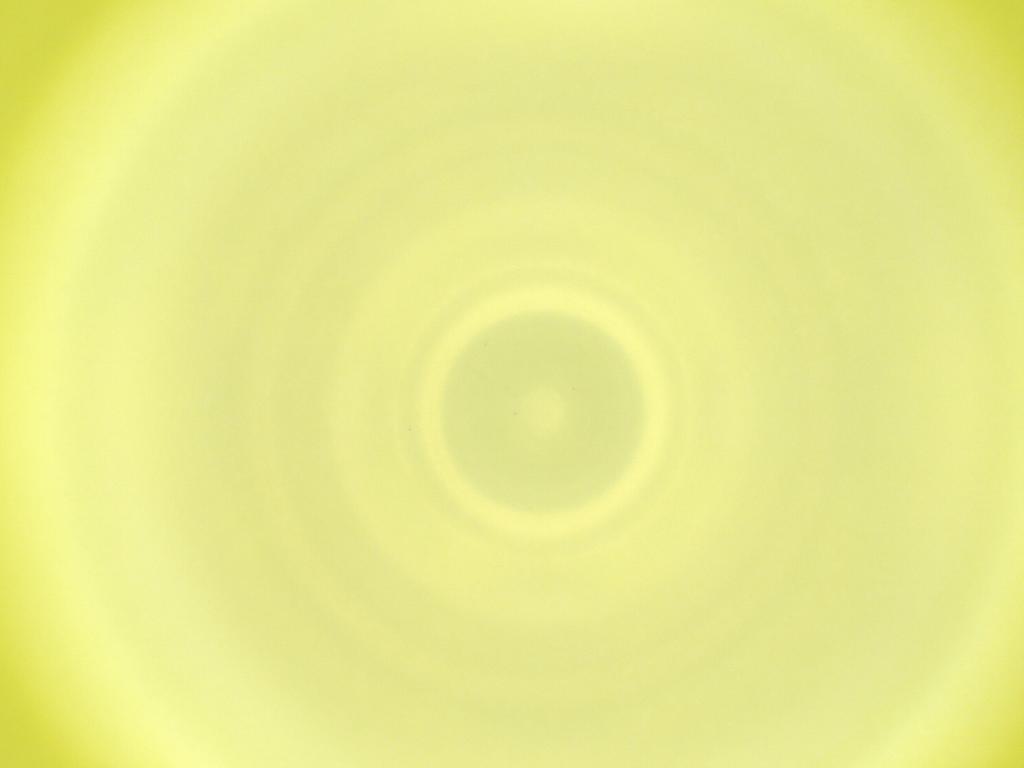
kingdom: Animalia
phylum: Arthropoda
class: Insecta
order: Diptera
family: Cecidomyiidae
